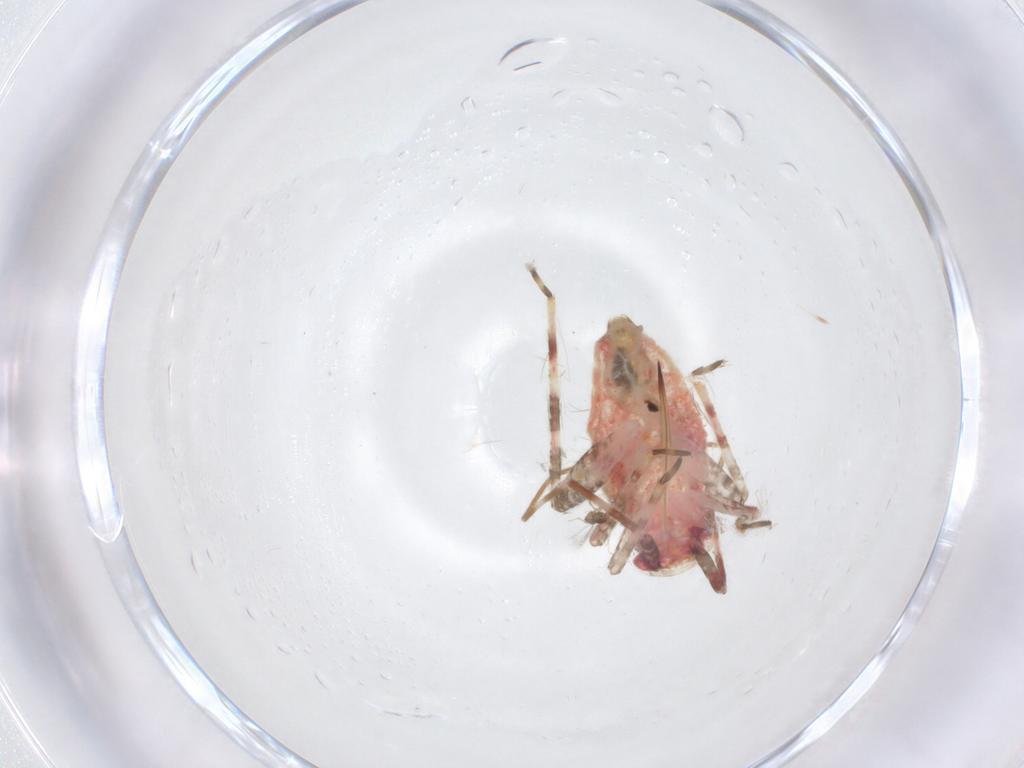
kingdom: Animalia
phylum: Arthropoda
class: Insecta
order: Hemiptera
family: Miridae
